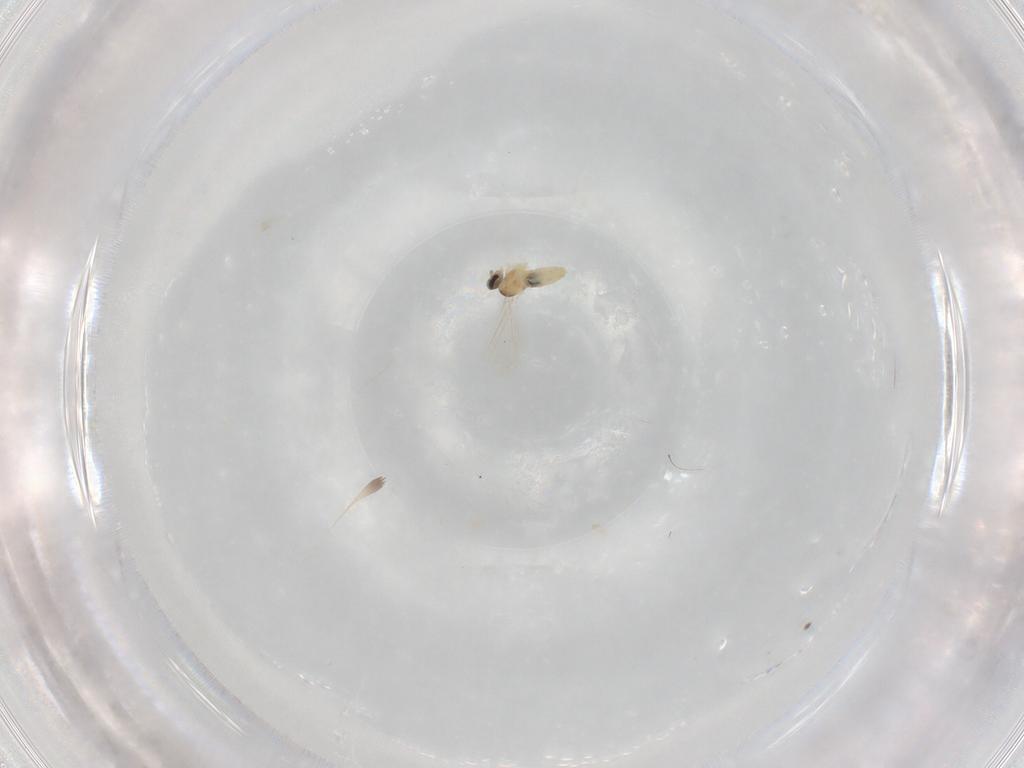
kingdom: Animalia
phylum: Arthropoda
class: Insecta
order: Diptera
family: Cecidomyiidae
